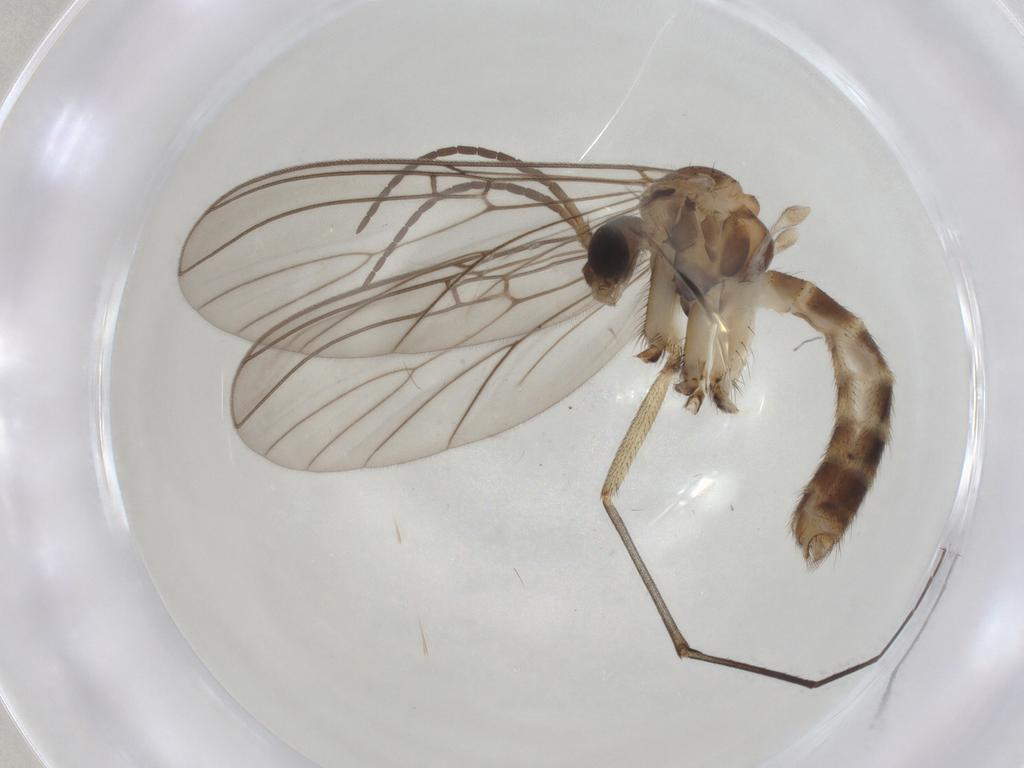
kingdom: Animalia
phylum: Arthropoda
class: Insecta
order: Diptera
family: Mycetophilidae
